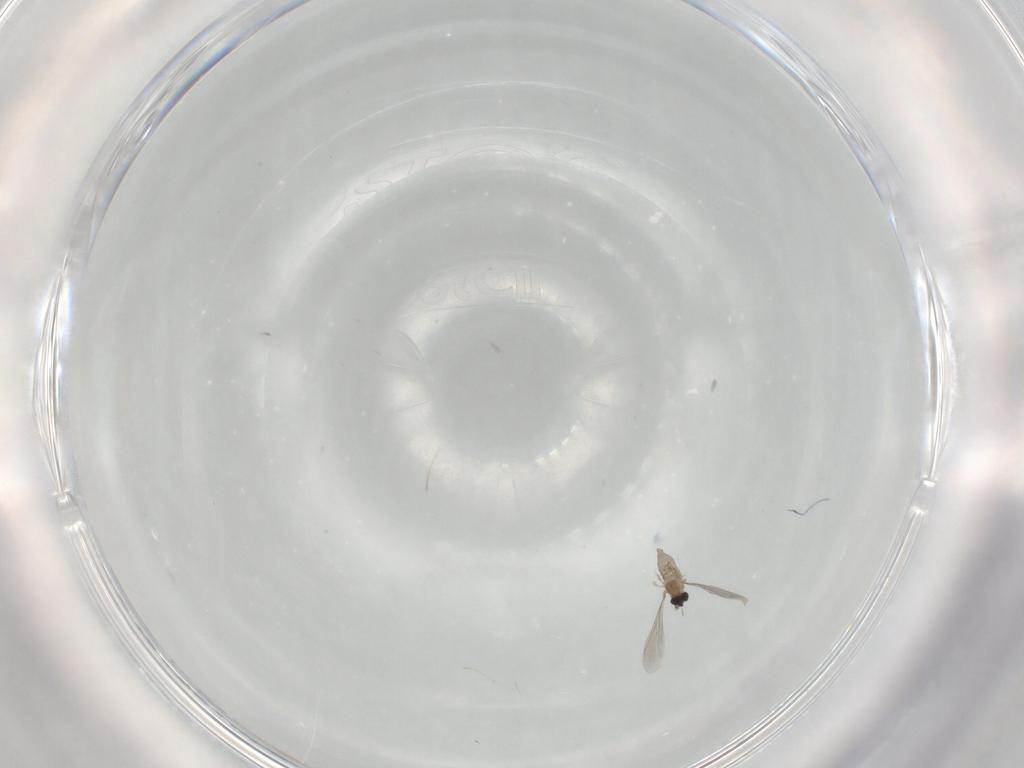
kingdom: Animalia
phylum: Arthropoda
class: Insecta
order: Diptera
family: Cecidomyiidae
